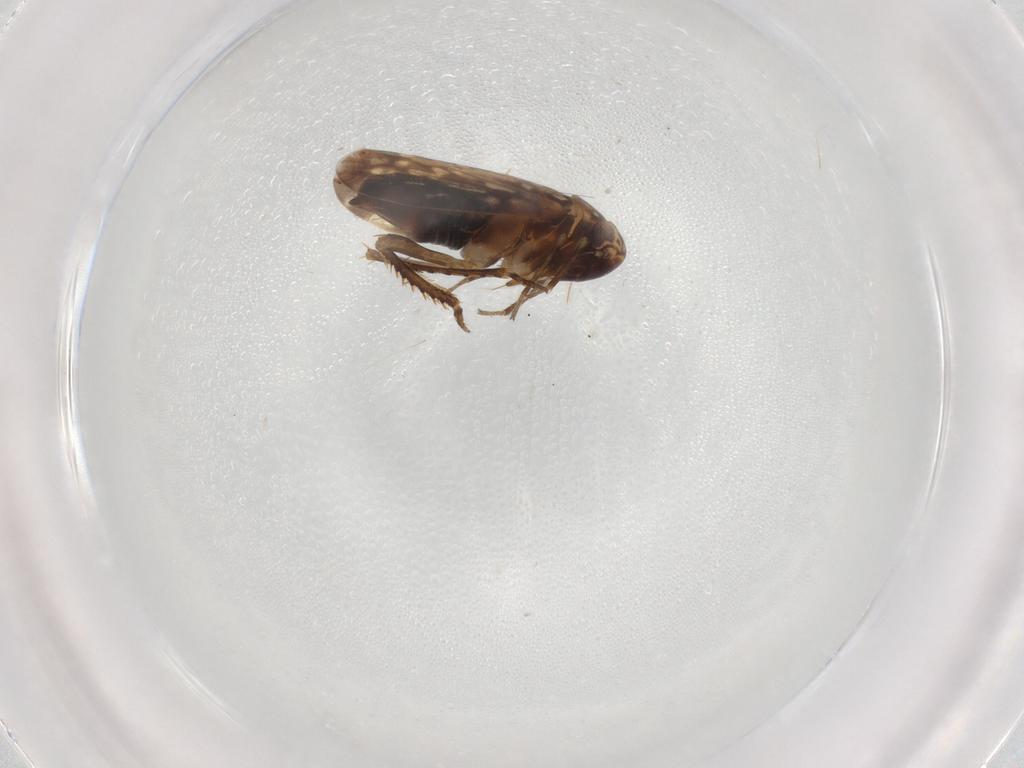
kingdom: Animalia
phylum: Arthropoda
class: Insecta
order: Hemiptera
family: Cicadellidae
